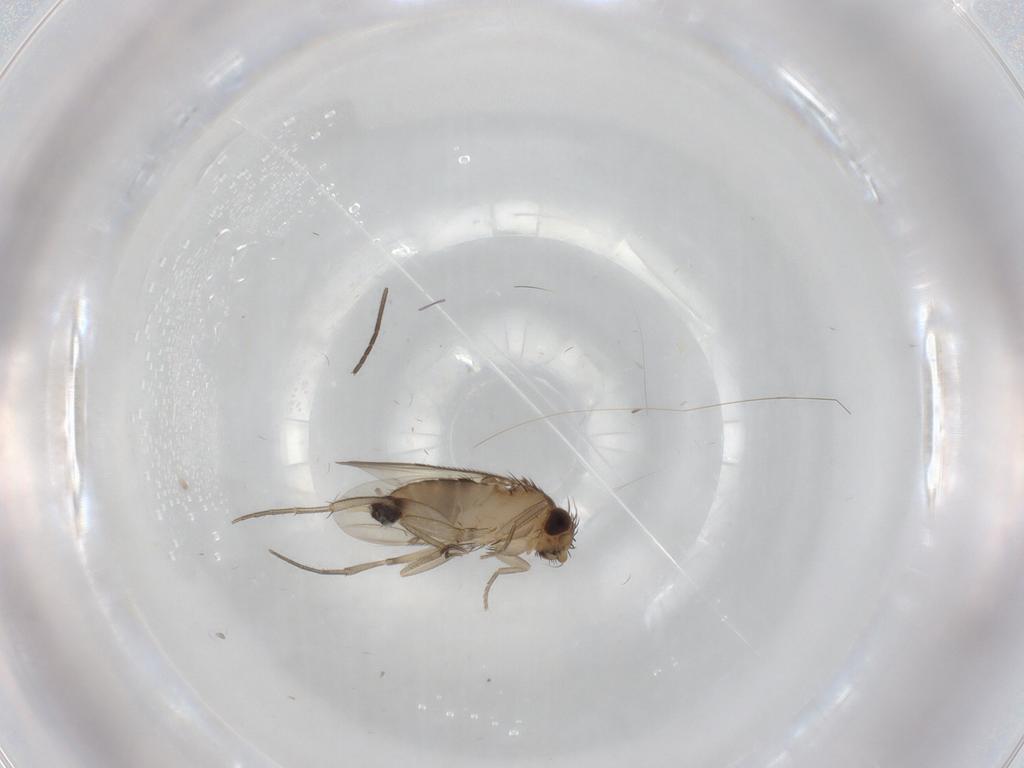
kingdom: Animalia
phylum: Arthropoda
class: Insecta
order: Diptera
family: Phoridae
